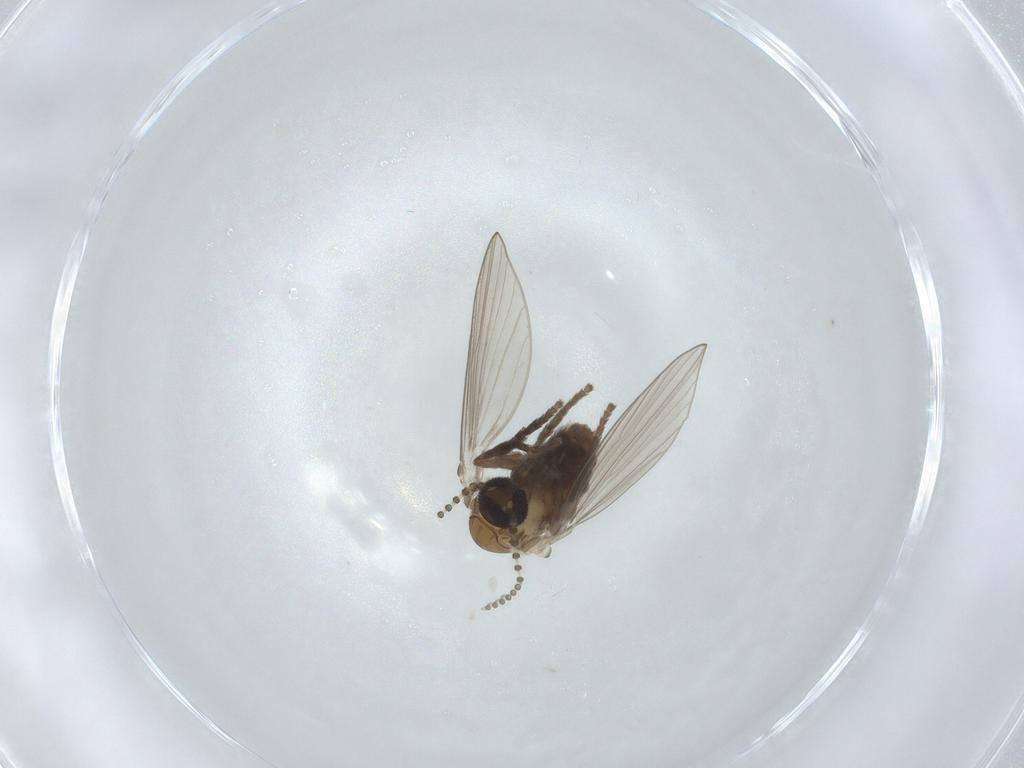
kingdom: Animalia
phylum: Arthropoda
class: Insecta
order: Diptera
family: Psychodidae
